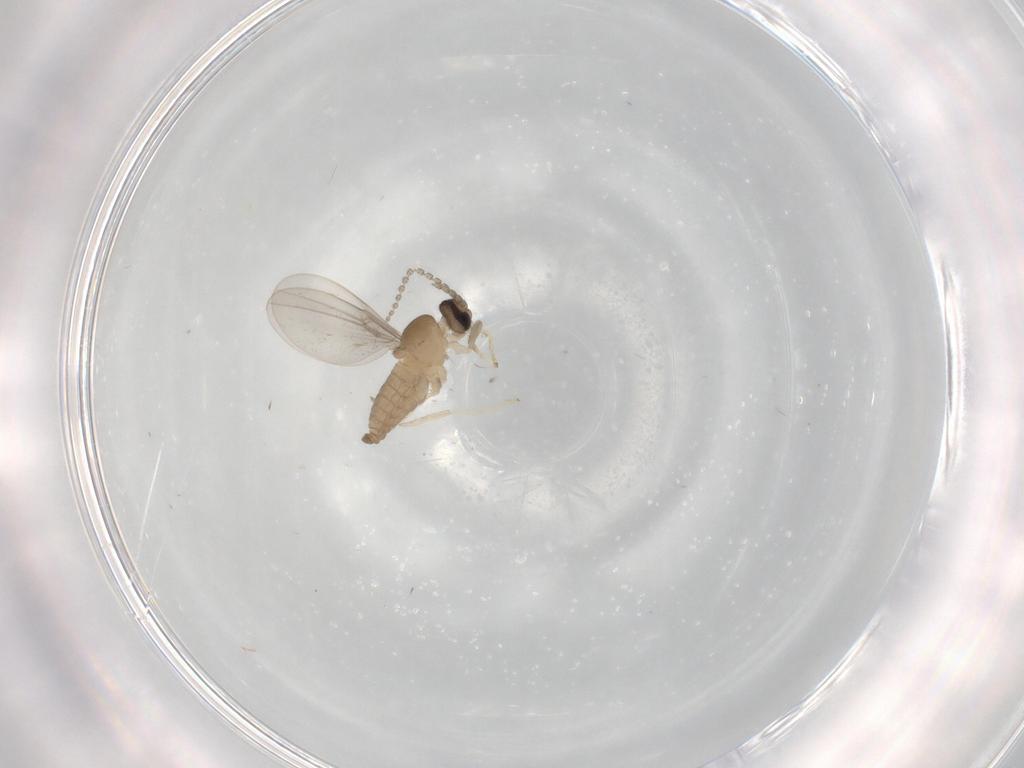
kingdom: Animalia
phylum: Arthropoda
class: Insecta
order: Diptera
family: Cecidomyiidae
